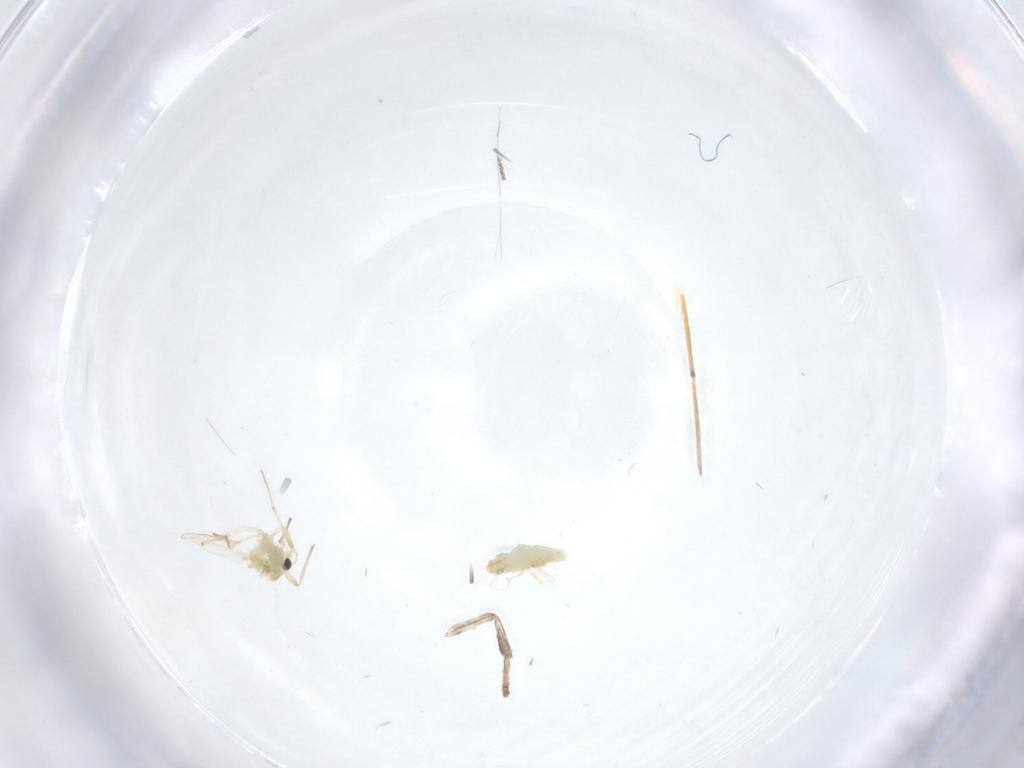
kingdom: Animalia
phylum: Arthropoda
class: Insecta
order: Diptera
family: Chironomidae
